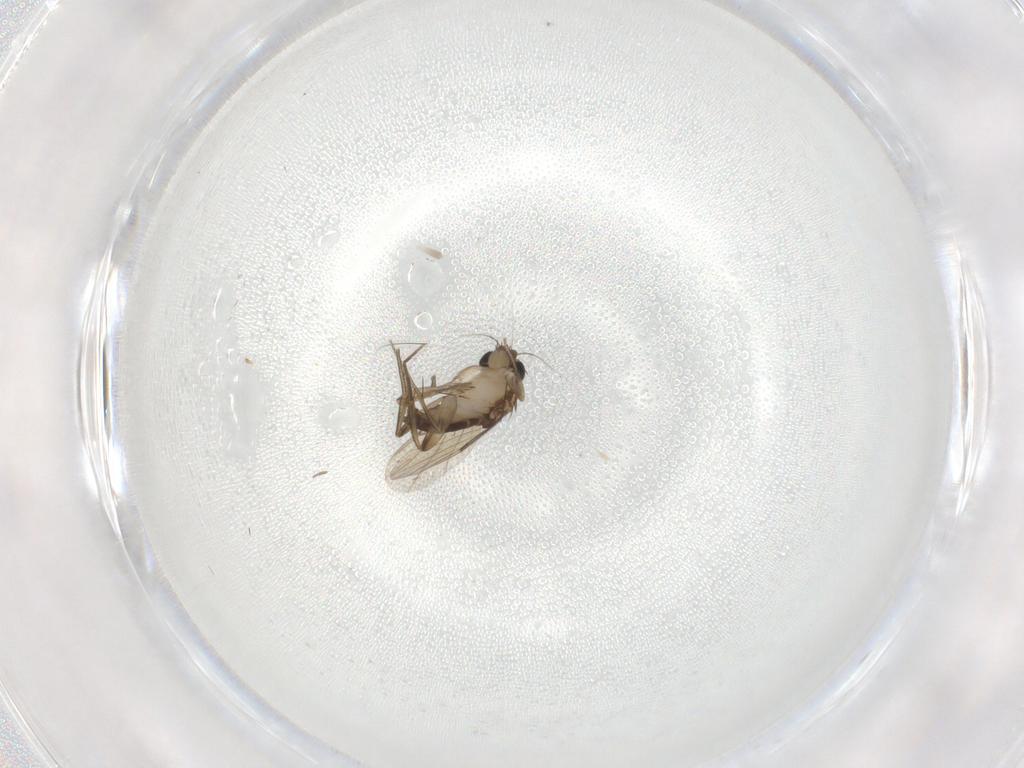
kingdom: Animalia
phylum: Arthropoda
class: Insecta
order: Diptera
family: Phoridae
